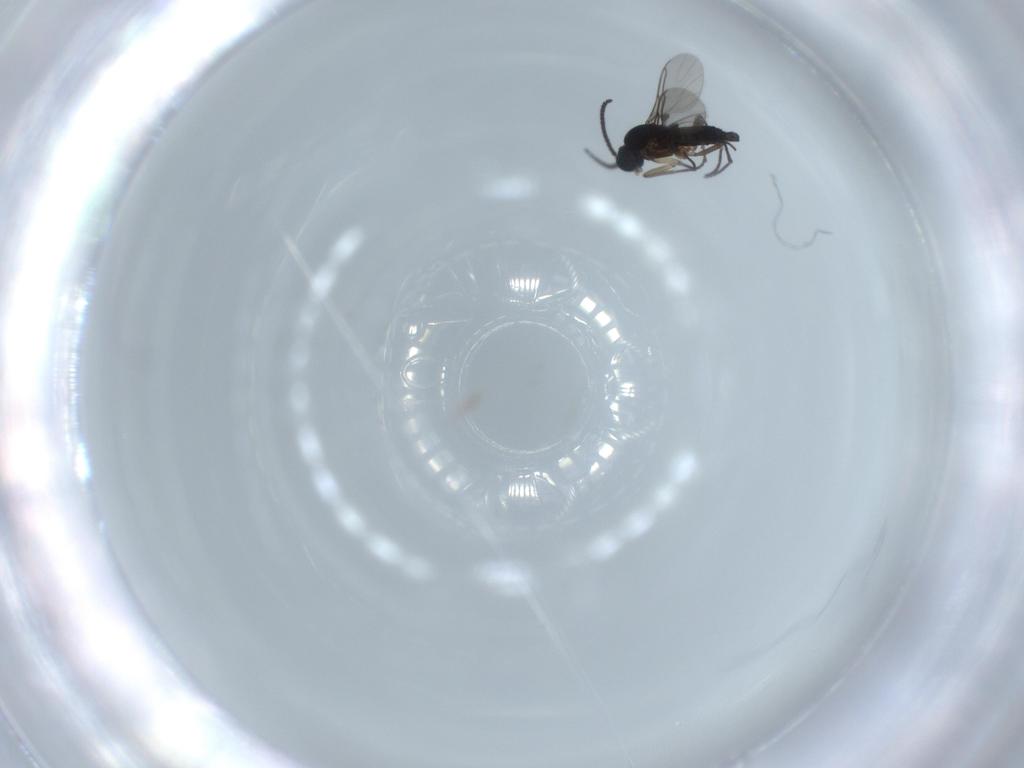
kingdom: Animalia
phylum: Arthropoda
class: Insecta
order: Diptera
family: Sciaridae
